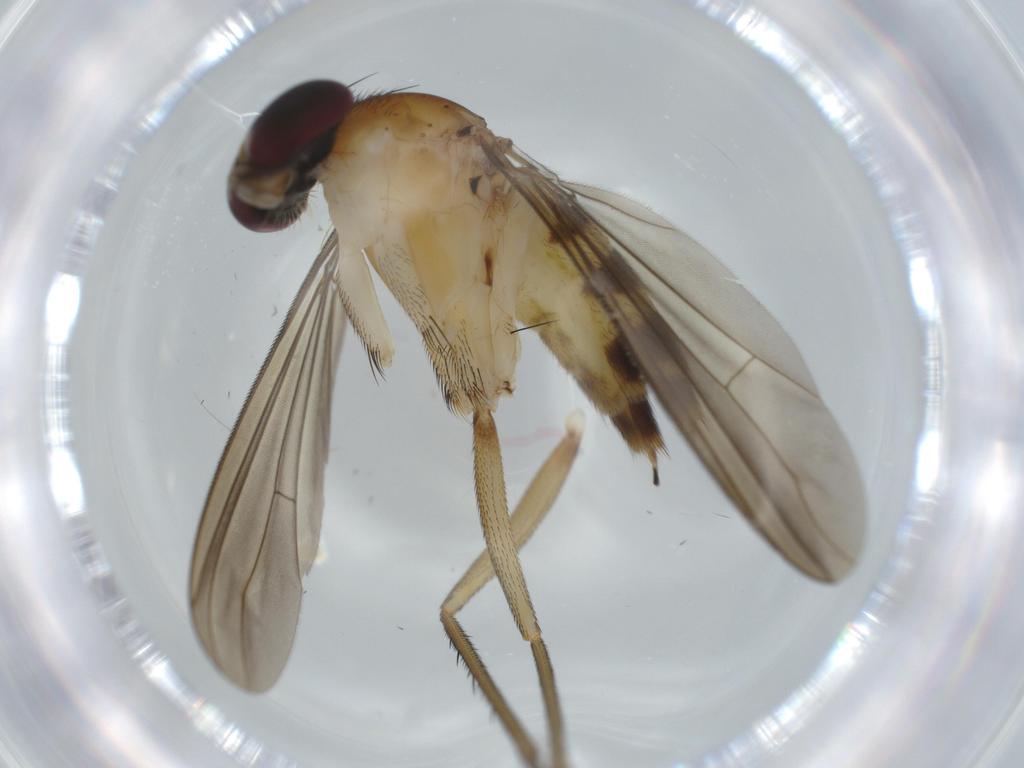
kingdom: Animalia
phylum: Arthropoda
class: Insecta
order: Diptera
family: Dolichopodidae
